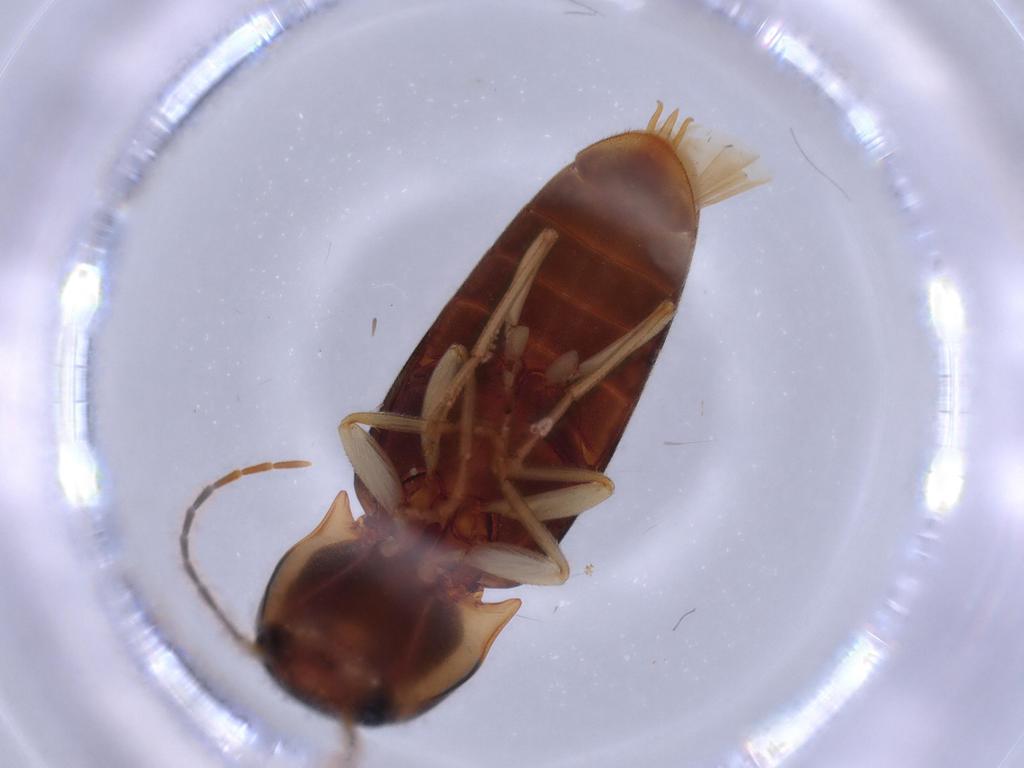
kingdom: Animalia
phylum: Arthropoda
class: Insecta
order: Coleoptera
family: Elateridae
